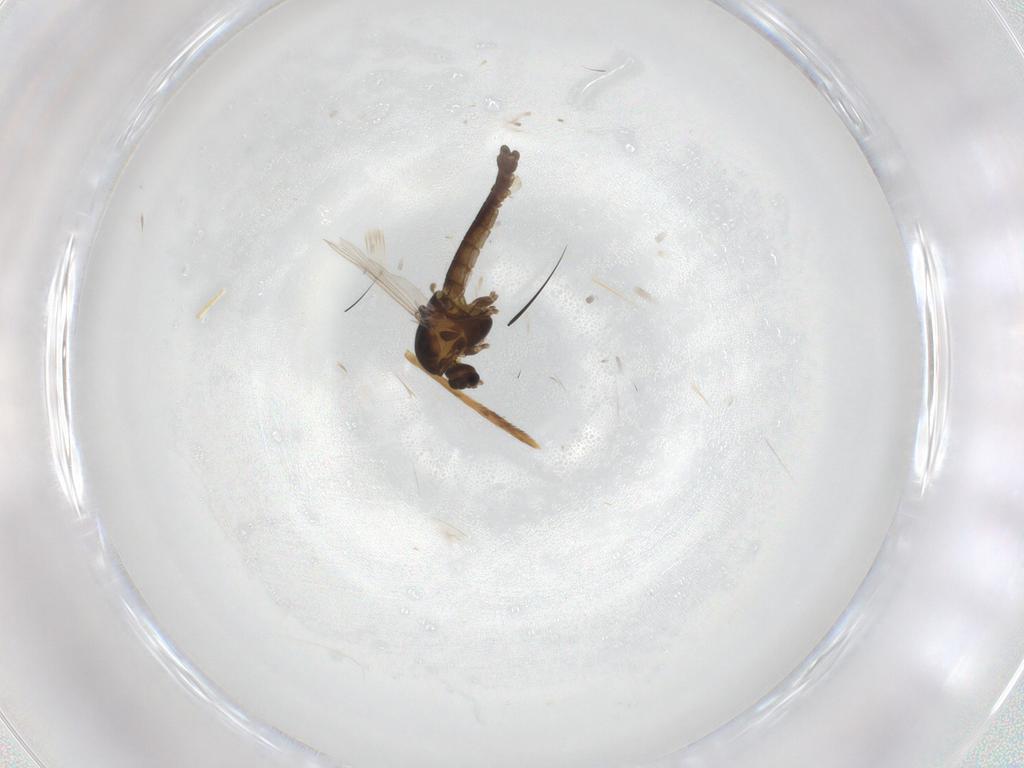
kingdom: Animalia
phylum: Arthropoda
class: Insecta
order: Diptera
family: Chironomidae
